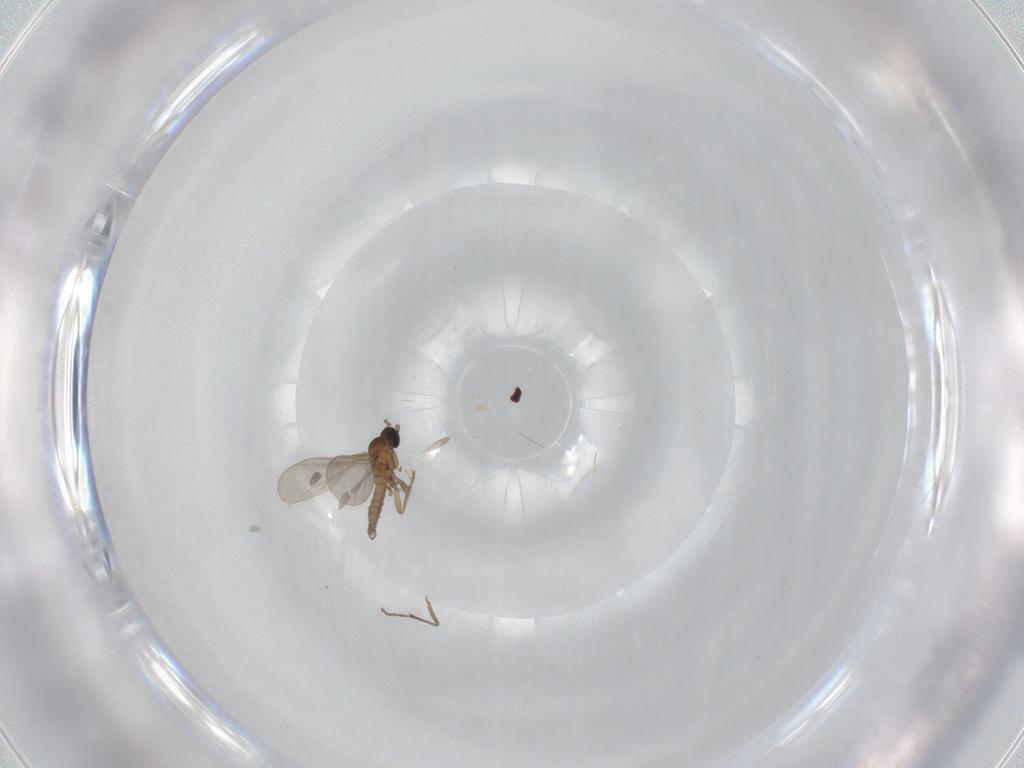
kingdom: Animalia
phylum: Arthropoda
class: Insecta
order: Diptera
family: Sciaridae
